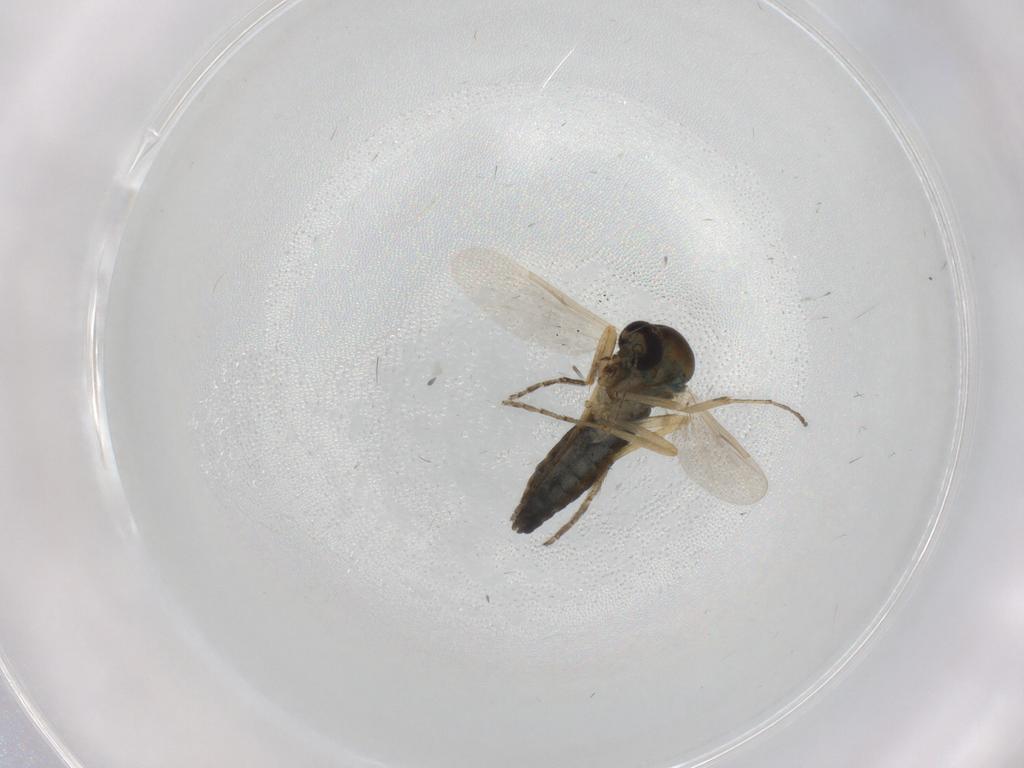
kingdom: Animalia
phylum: Arthropoda
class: Insecta
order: Diptera
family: Ceratopogonidae
